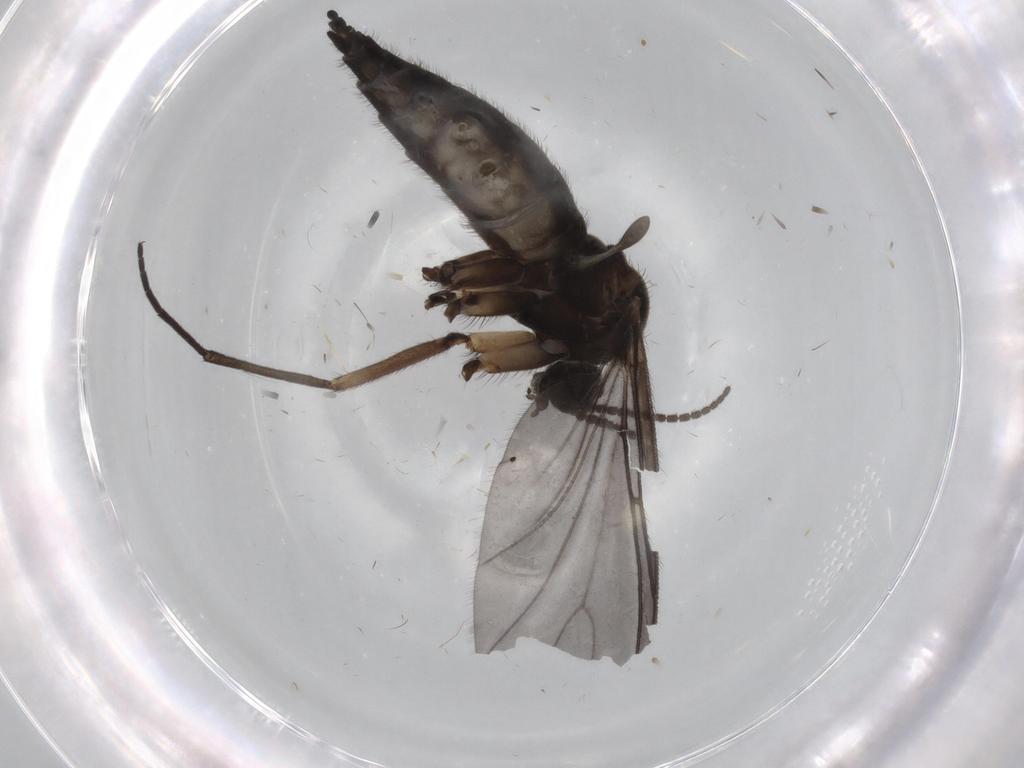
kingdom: Animalia
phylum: Arthropoda
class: Insecta
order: Diptera
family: Sciaridae
